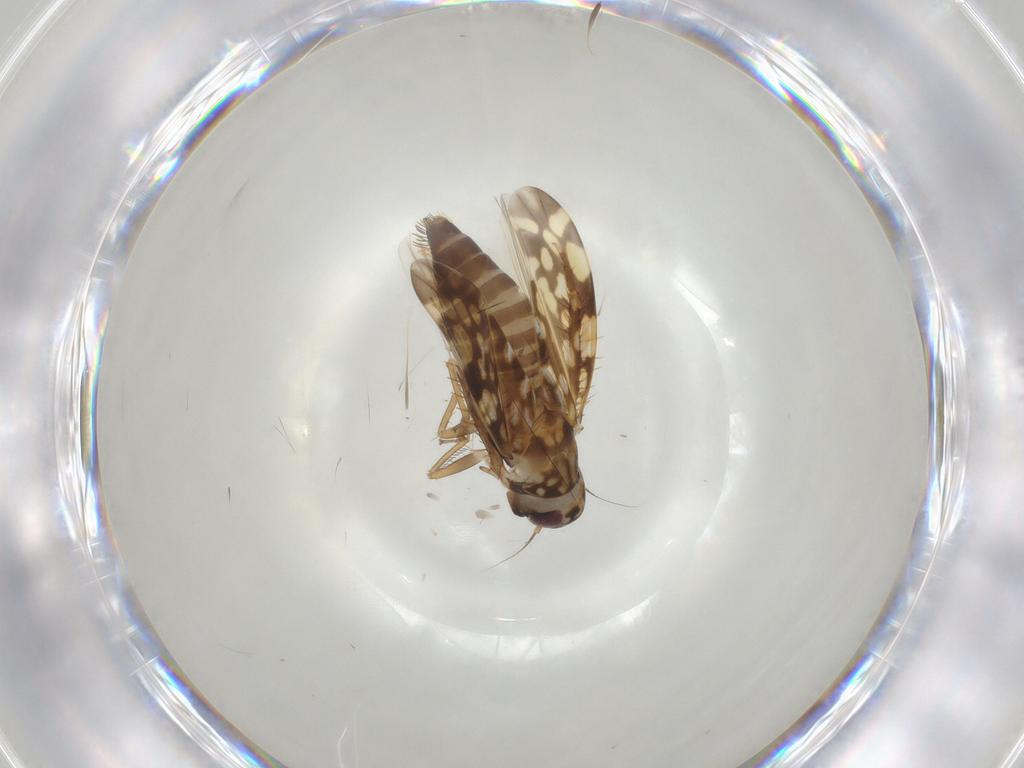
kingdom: Animalia
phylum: Arthropoda
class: Insecta
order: Hemiptera
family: Cicadellidae
